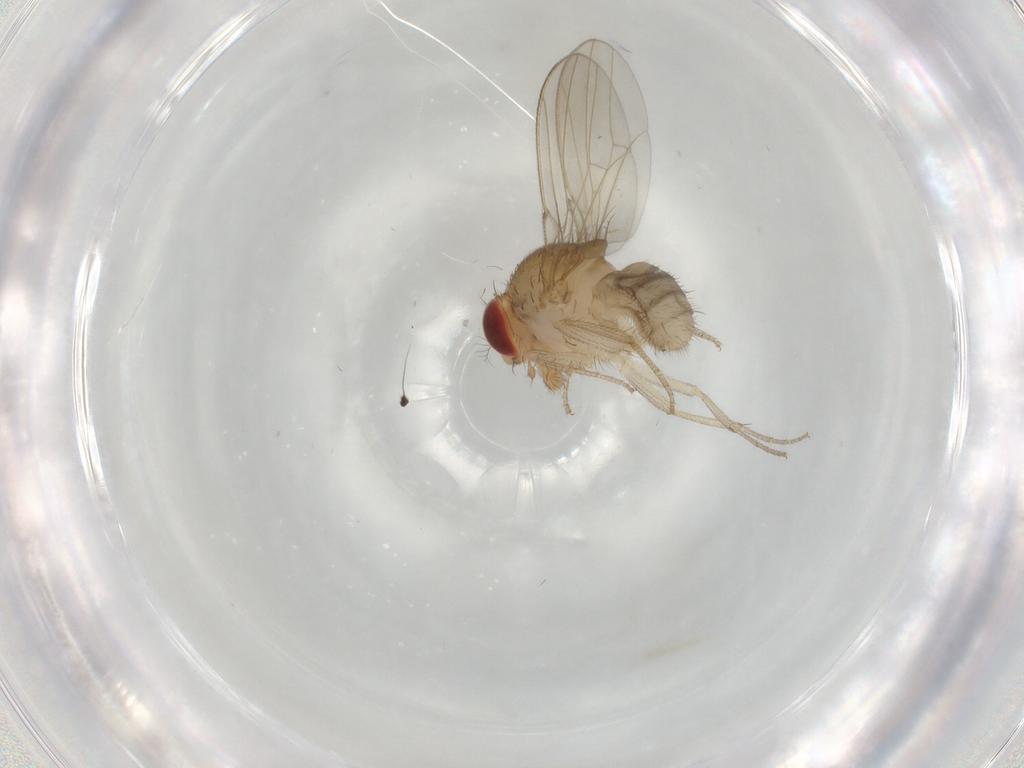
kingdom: Animalia
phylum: Arthropoda
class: Insecta
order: Diptera
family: Drosophilidae
